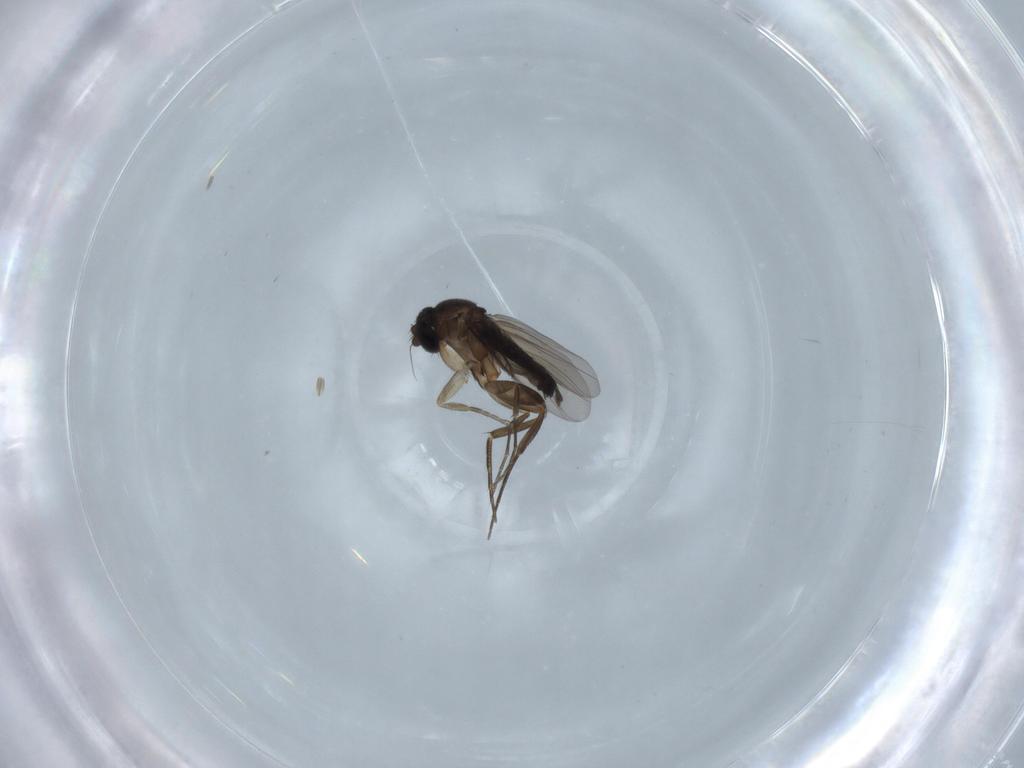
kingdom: Animalia
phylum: Arthropoda
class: Insecta
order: Diptera
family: Phoridae
